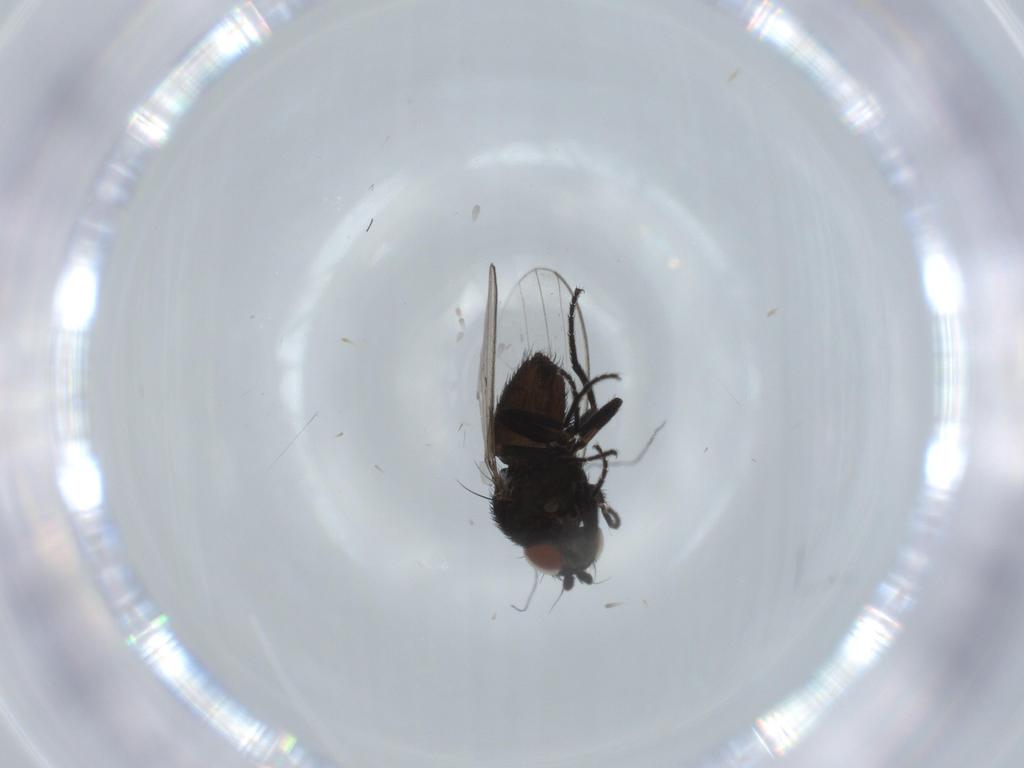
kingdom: Animalia
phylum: Arthropoda
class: Insecta
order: Diptera
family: Milichiidae
